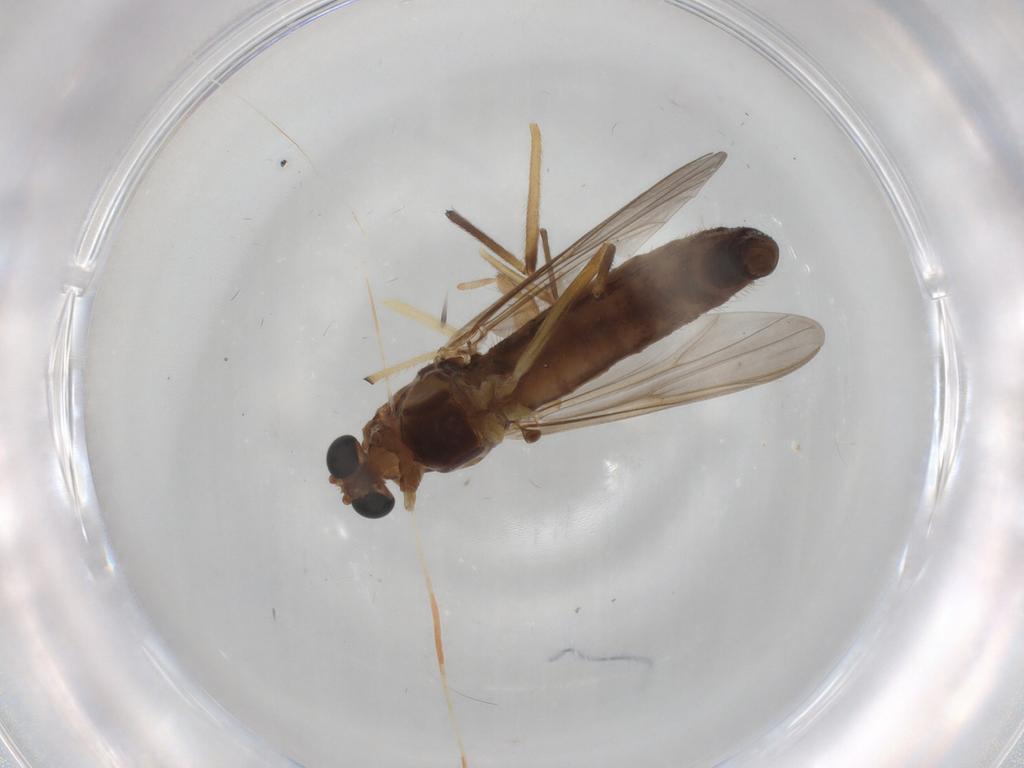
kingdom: Animalia
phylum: Arthropoda
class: Insecta
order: Diptera
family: Chironomidae
